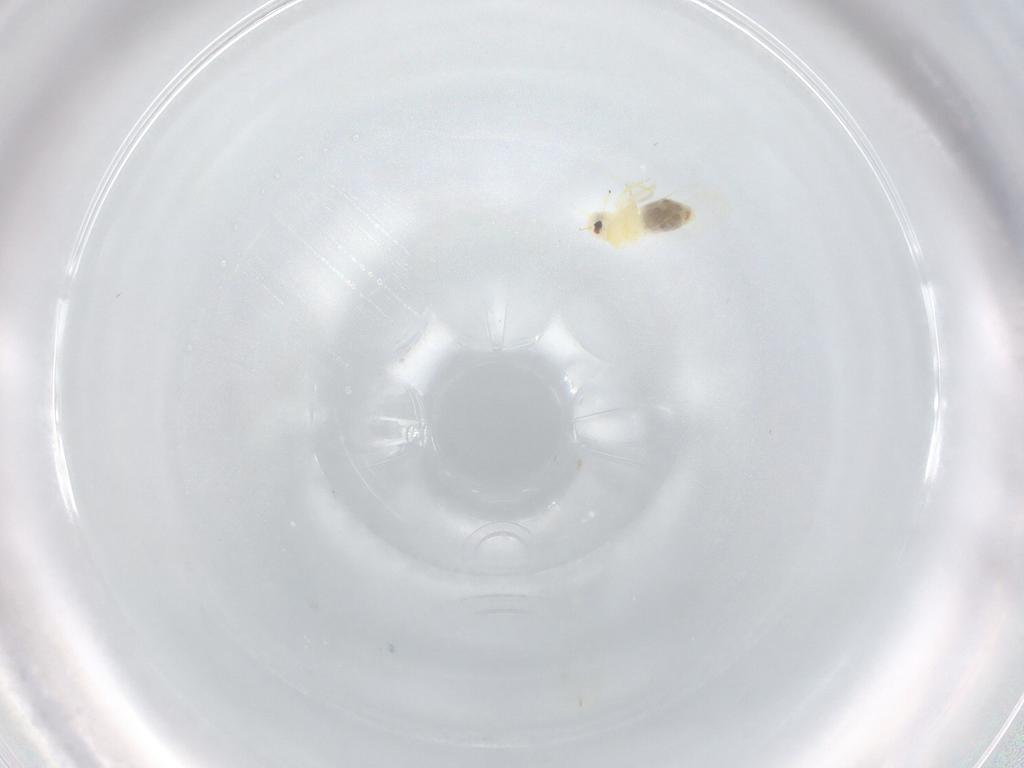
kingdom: Animalia
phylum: Arthropoda
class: Insecta
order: Hemiptera
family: Aleyrodidae
